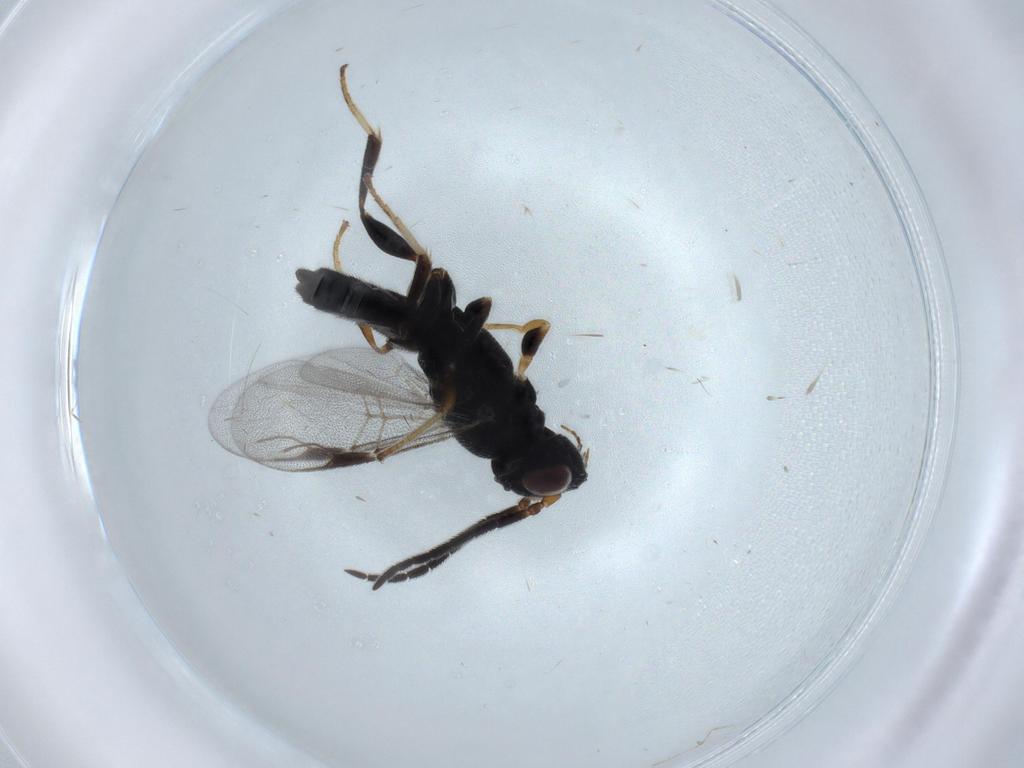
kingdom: Animalia
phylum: Arthropoda
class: Insecta
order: Hymenoptera
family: Dryinidae
